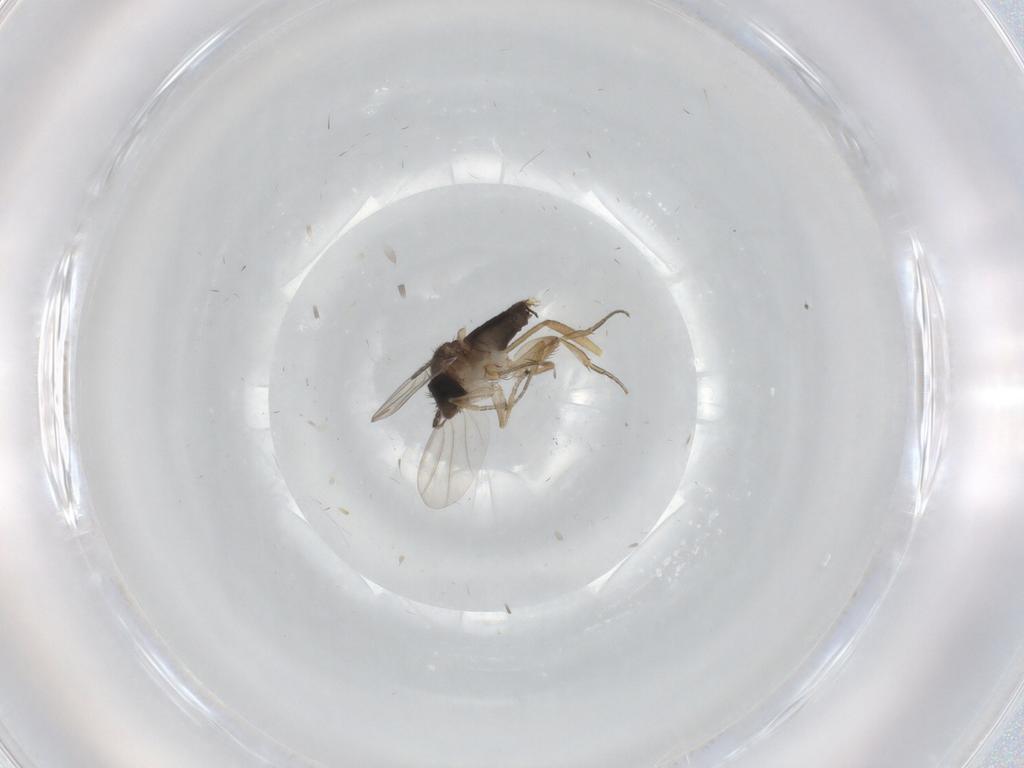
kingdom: Animalia
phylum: Arthropoda
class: Insecta
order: Diptera
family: Phoridae
